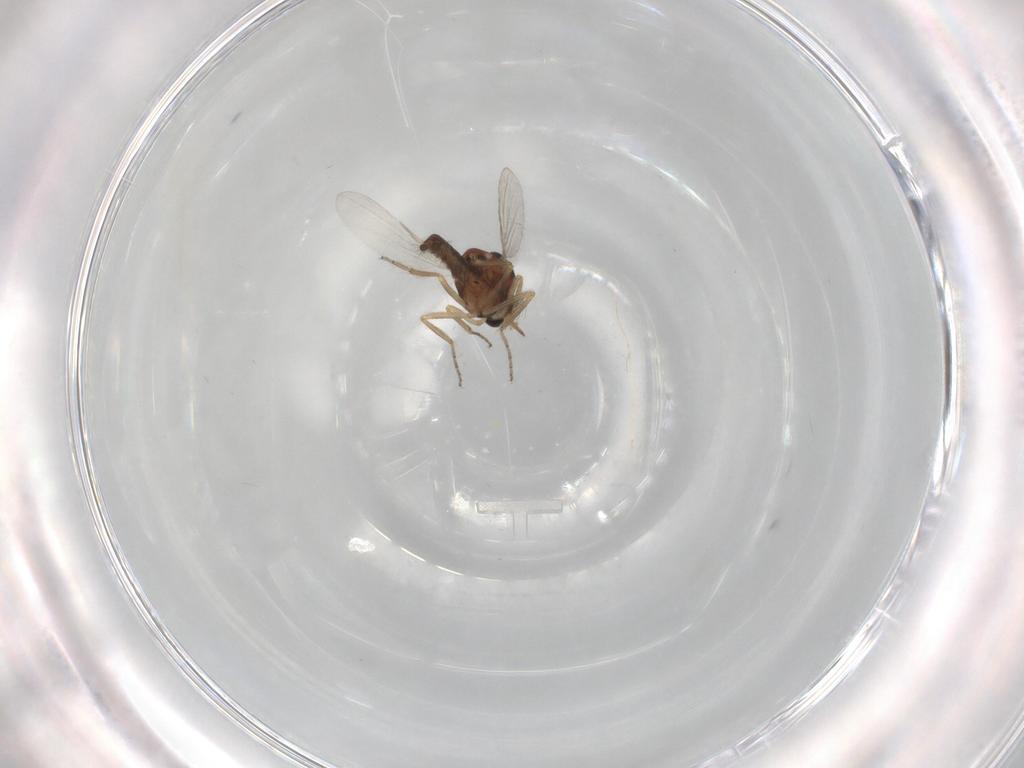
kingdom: Animalia
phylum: Arthropoda
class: Insecta
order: Diptera
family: Ceratopogonidae
